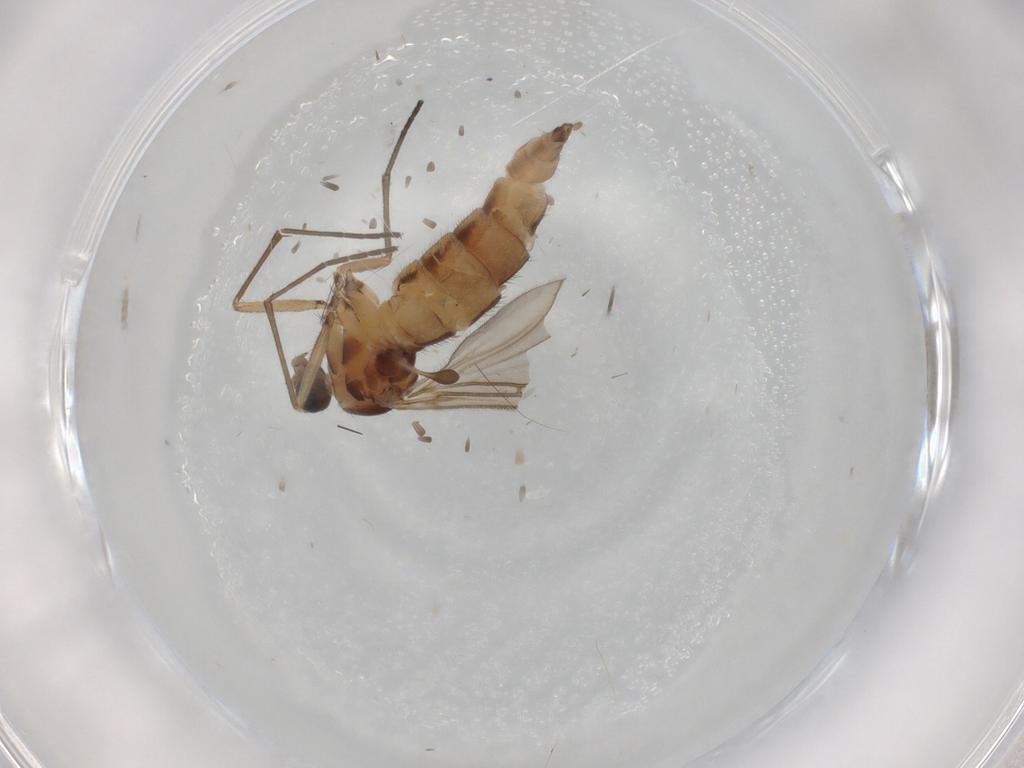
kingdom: Animalia
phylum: Arthropoda
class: Insecta
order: Diptera
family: Sciaridae
